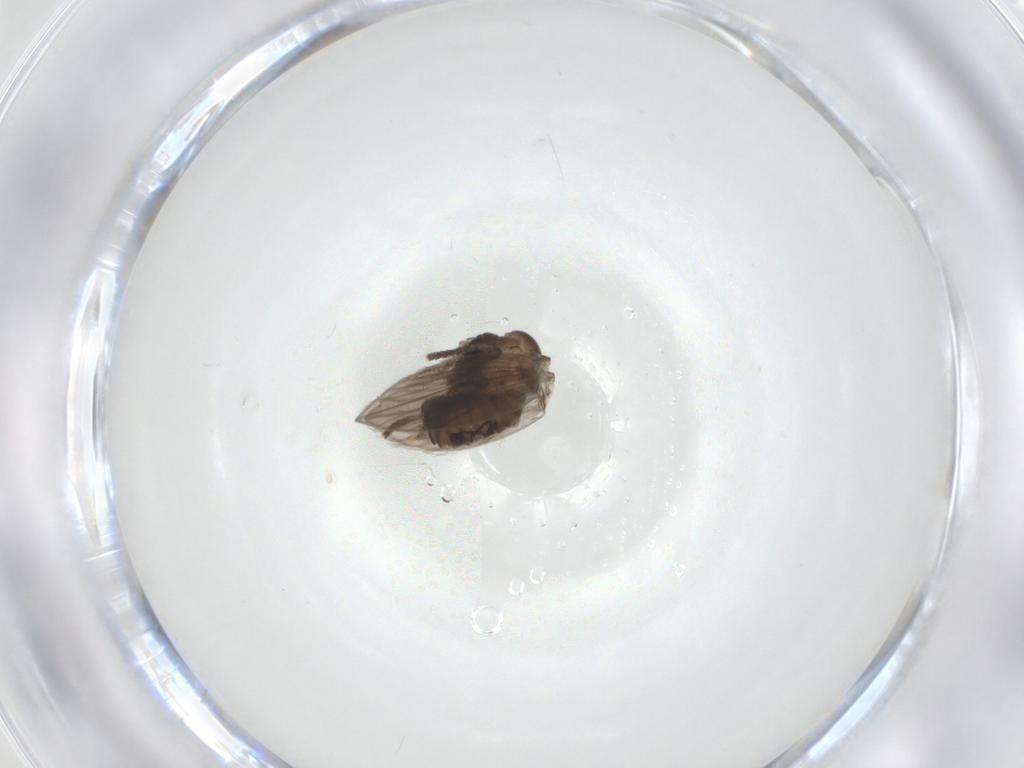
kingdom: Animalia
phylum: Arthropoda
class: Insecta
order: Diptera
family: Psychodidae
